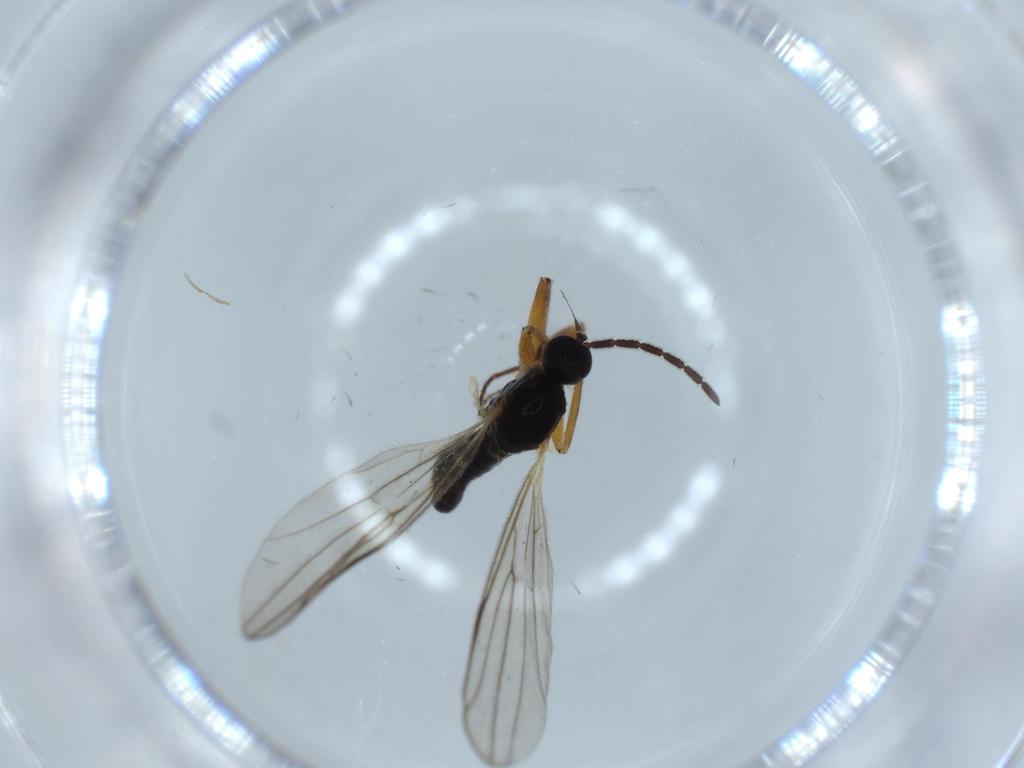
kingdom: Animalia
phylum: Arthropoda
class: Insecta
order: Diptera
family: Hybotidae
